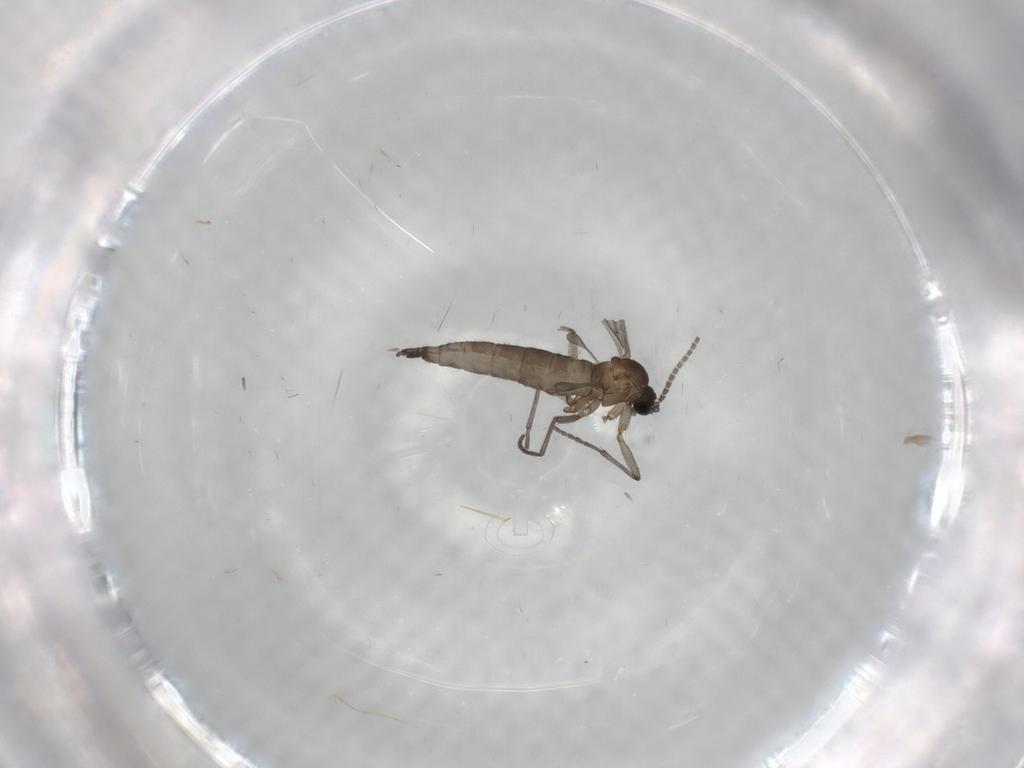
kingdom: Animalia
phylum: Arthropoda
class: Insecta
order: Diptera
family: Sciaridae
